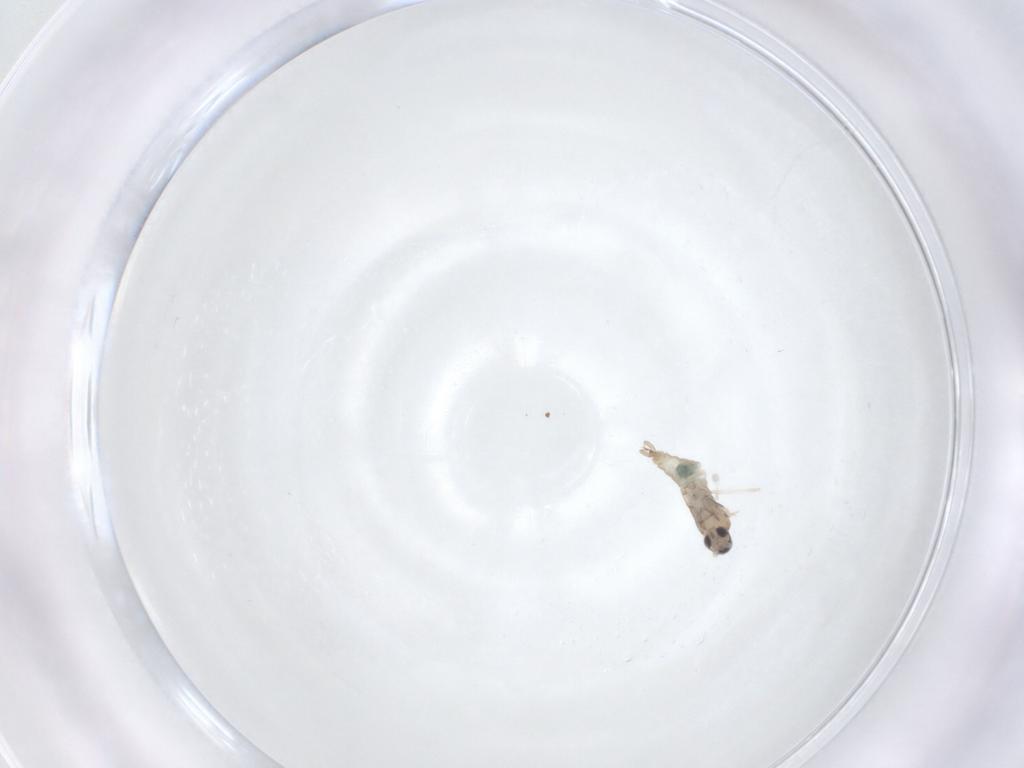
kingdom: Animalia
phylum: Arthropoda
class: Insecta
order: Diptera
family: Cecidomyiidae
